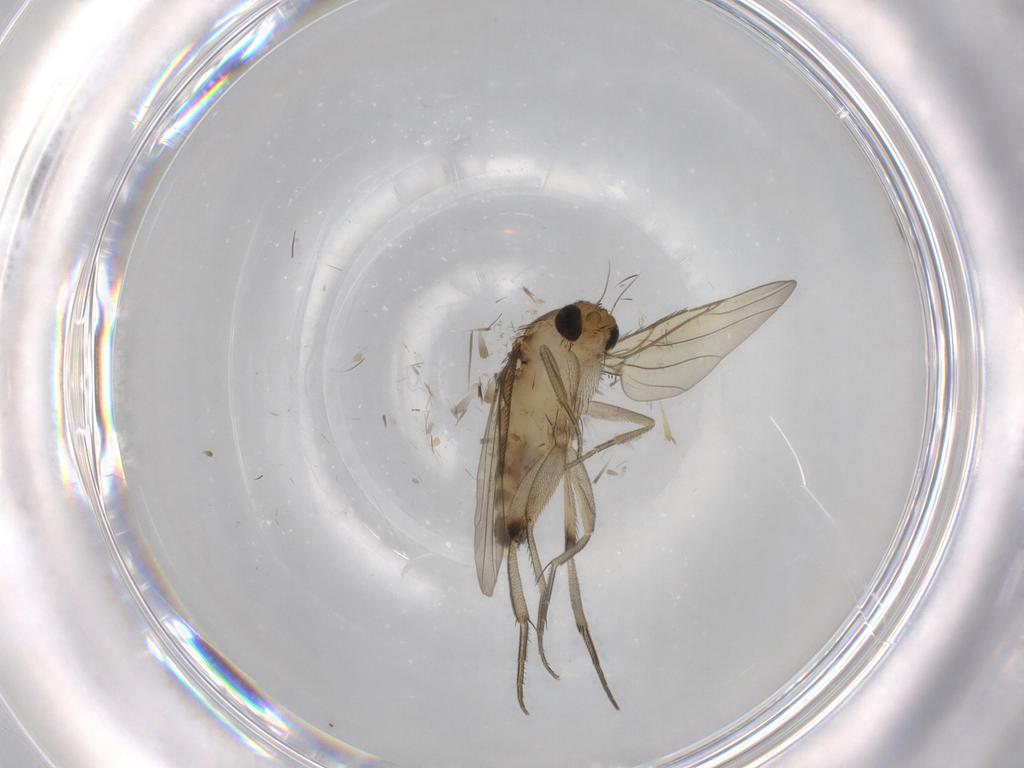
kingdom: Animalia
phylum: Arthropoda
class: Insecta
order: Diptera
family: Phoridae
